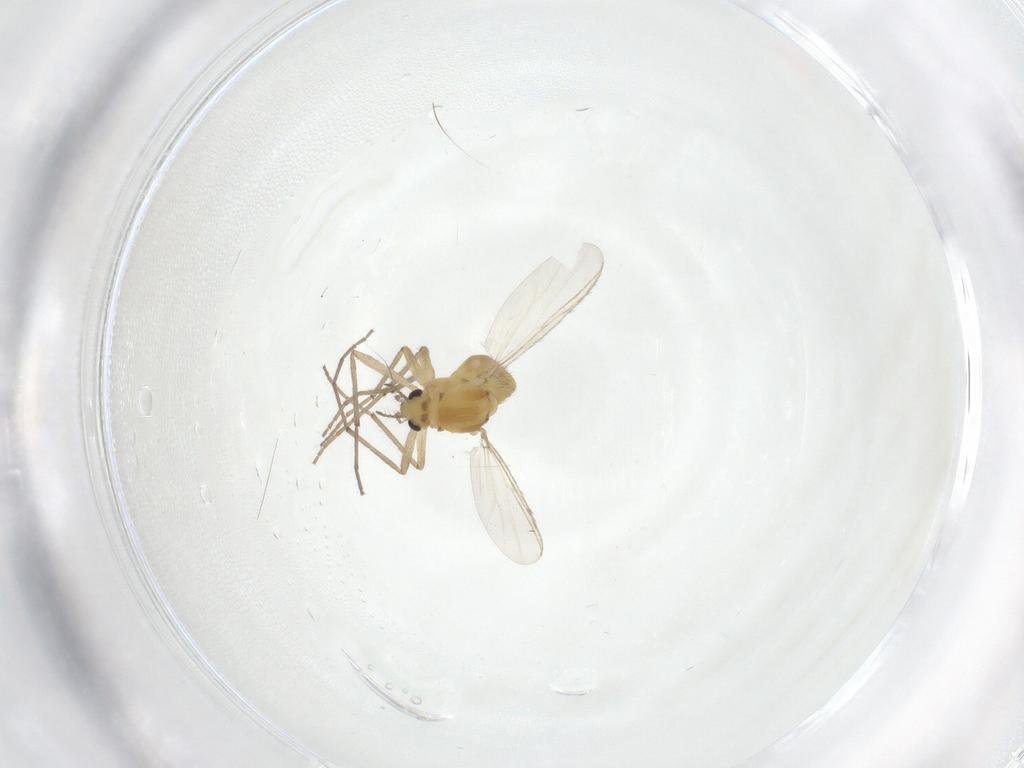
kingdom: Animalia
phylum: Arthropoda
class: Insecta
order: Diptera
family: Chironomidae
